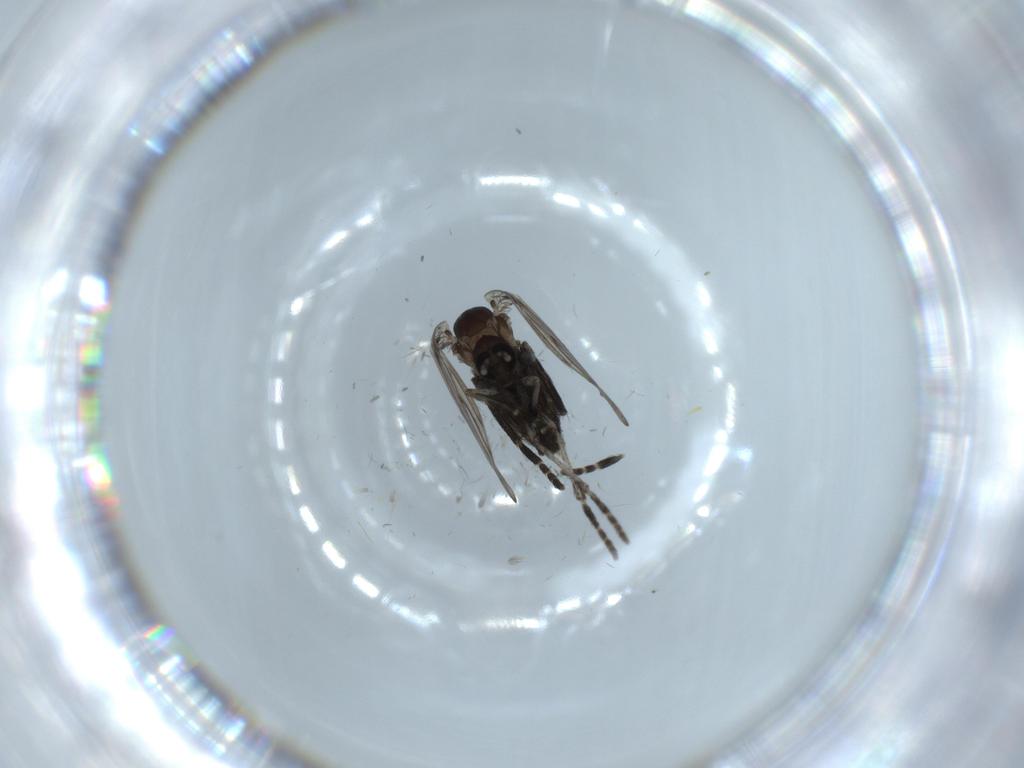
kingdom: Animalia
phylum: Arthropoda
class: Insecta
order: Diptera
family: Psychodidae
